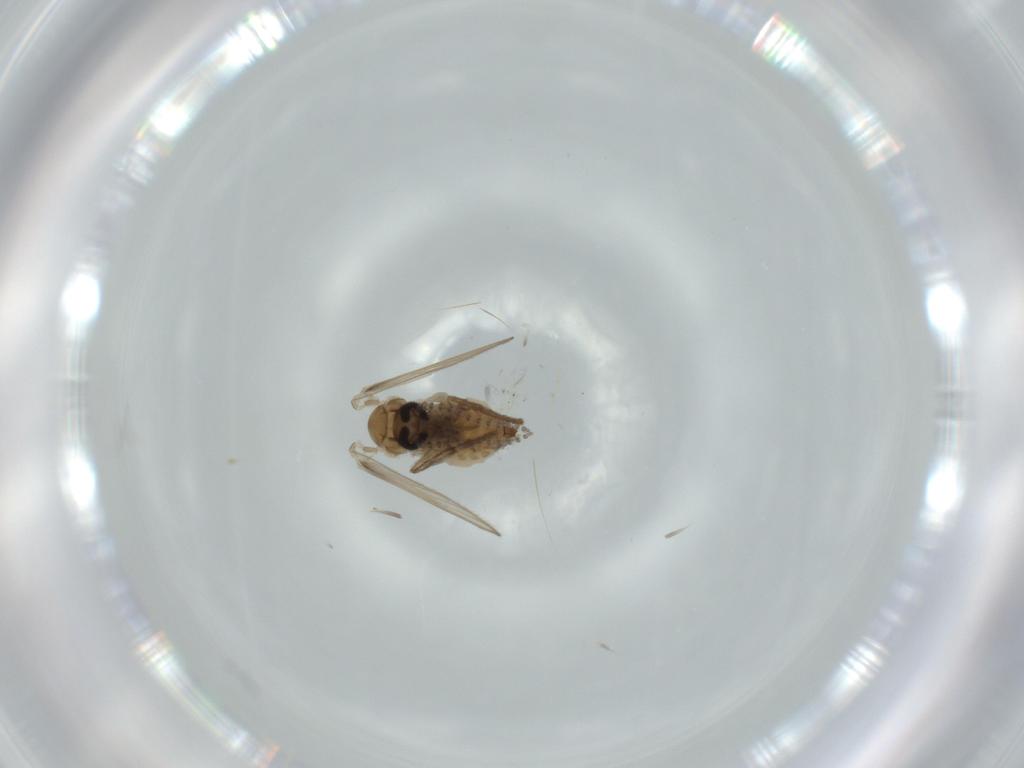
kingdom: Animalia
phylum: Arthropoda
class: Insecta
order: Diptera
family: Psychodidae
